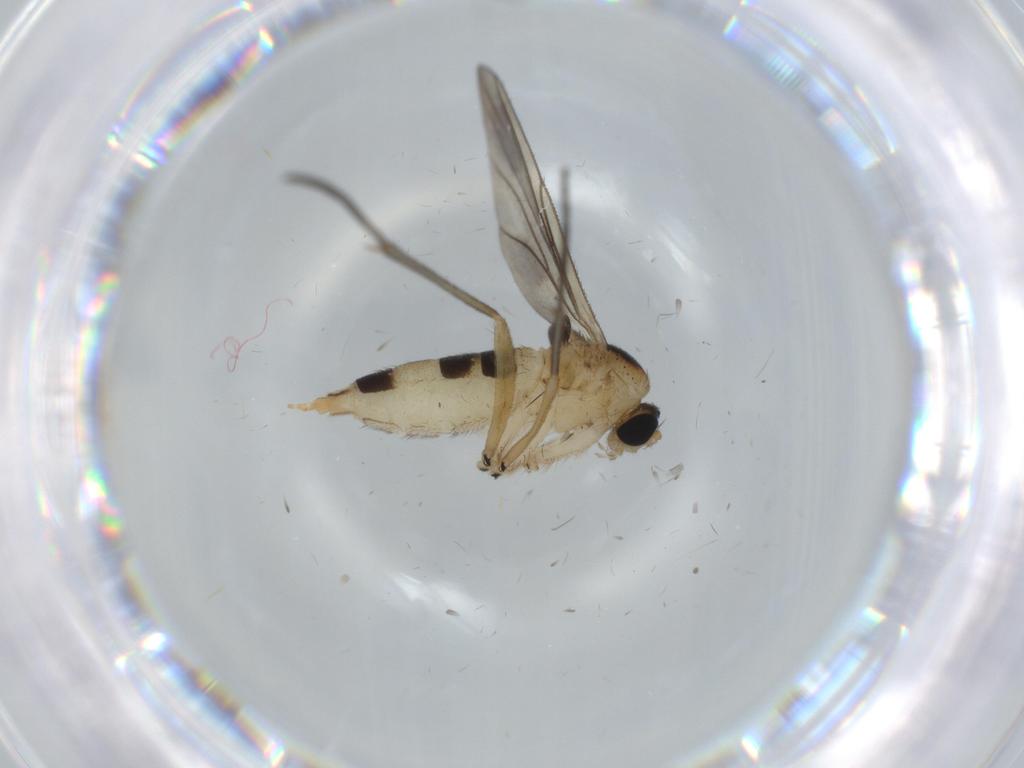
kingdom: Animalia
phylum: Arthropoda
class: Insecta
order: Diptera
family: Sciaridae
